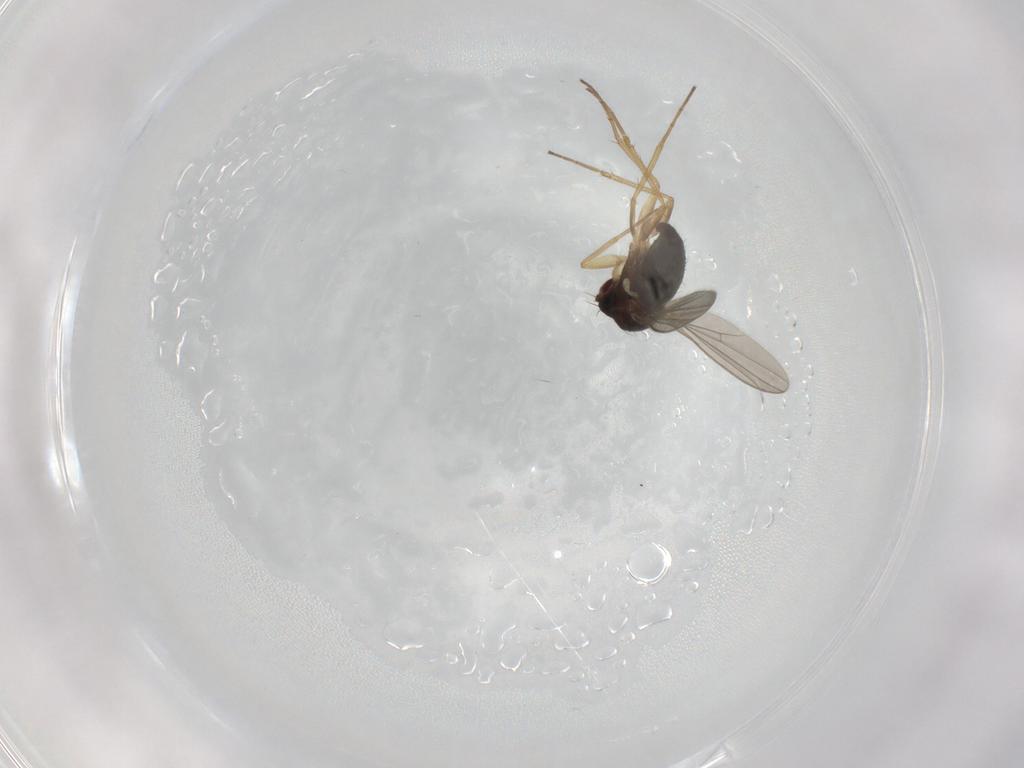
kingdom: Animalia
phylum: Arthropoda
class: Insecta
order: Diptera
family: Dolichopodidae
